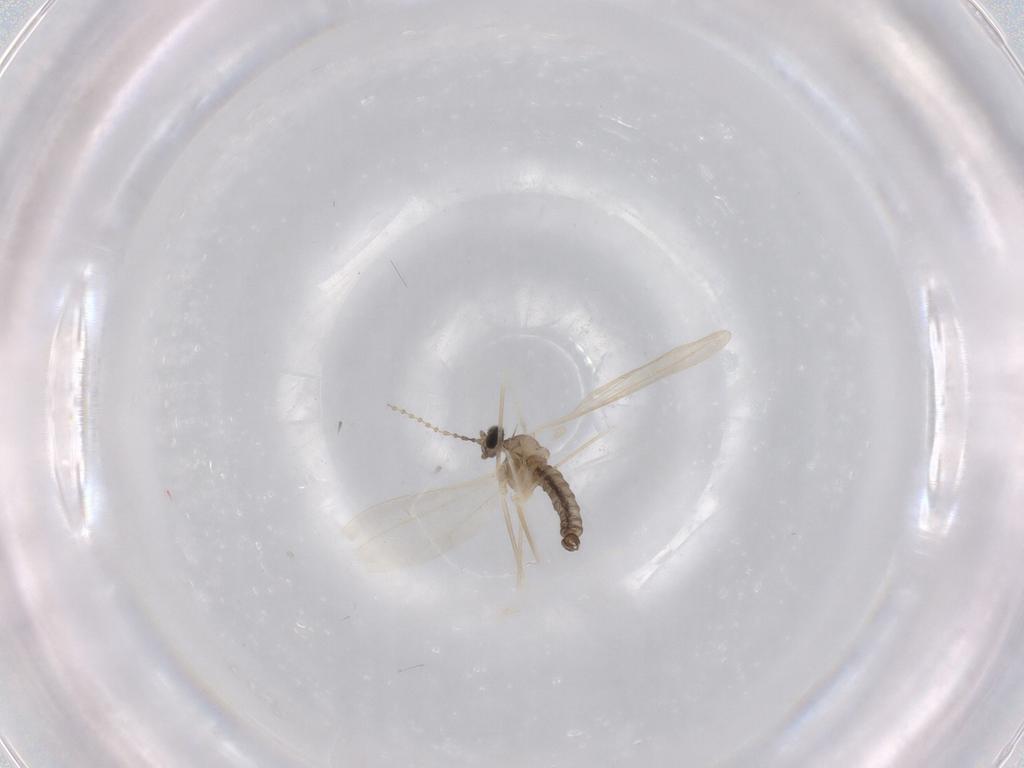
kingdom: Animalia
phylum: Arthropoda
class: Insecta
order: Diptera
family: Cecidomyiidae
